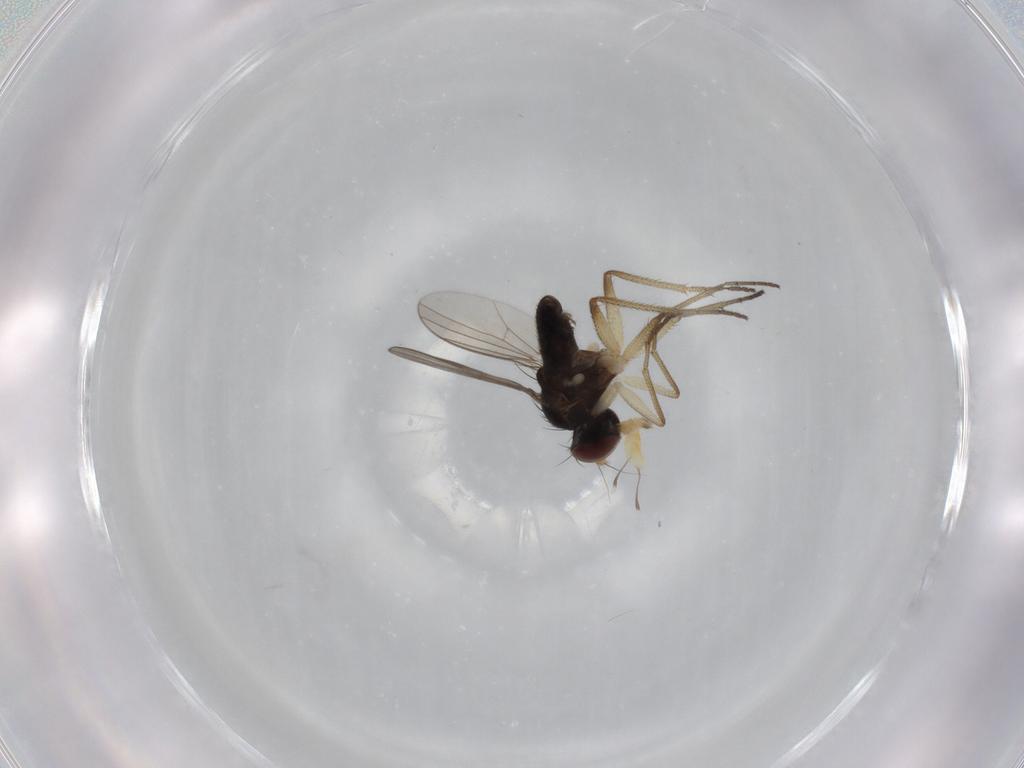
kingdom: Animalia
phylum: Arthropoda
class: Insecta
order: Diptera
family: Dolichopodidae
